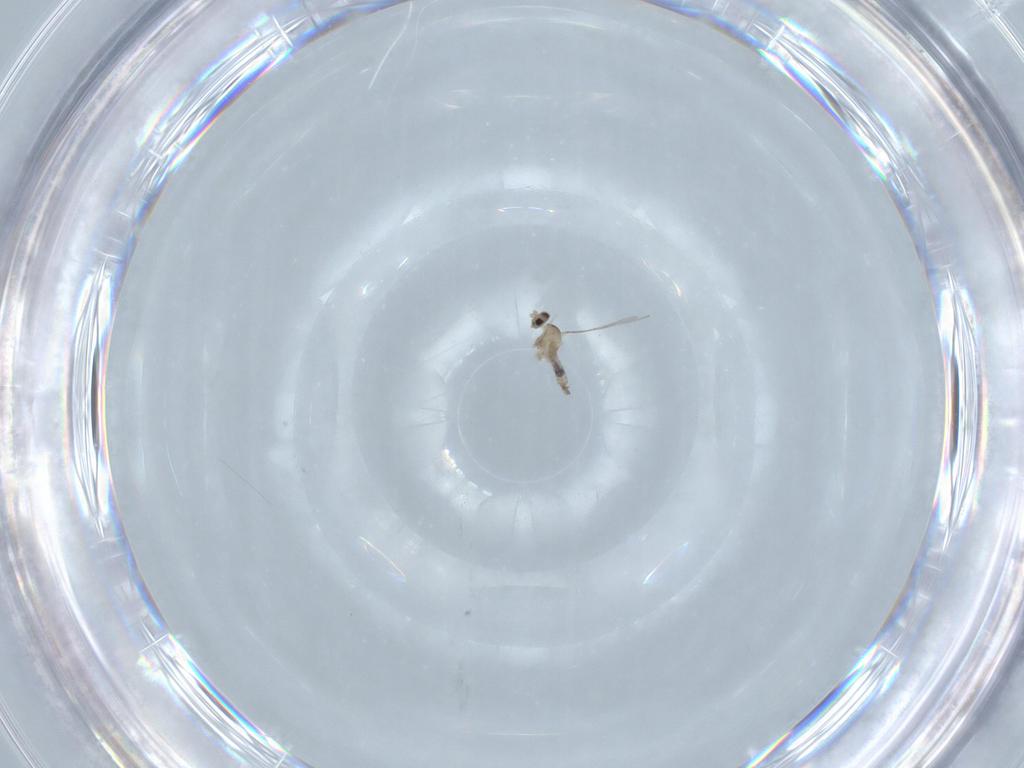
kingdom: Animalia
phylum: Arthropoda
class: Insecta
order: Diptera
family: Cecidomyiidae
